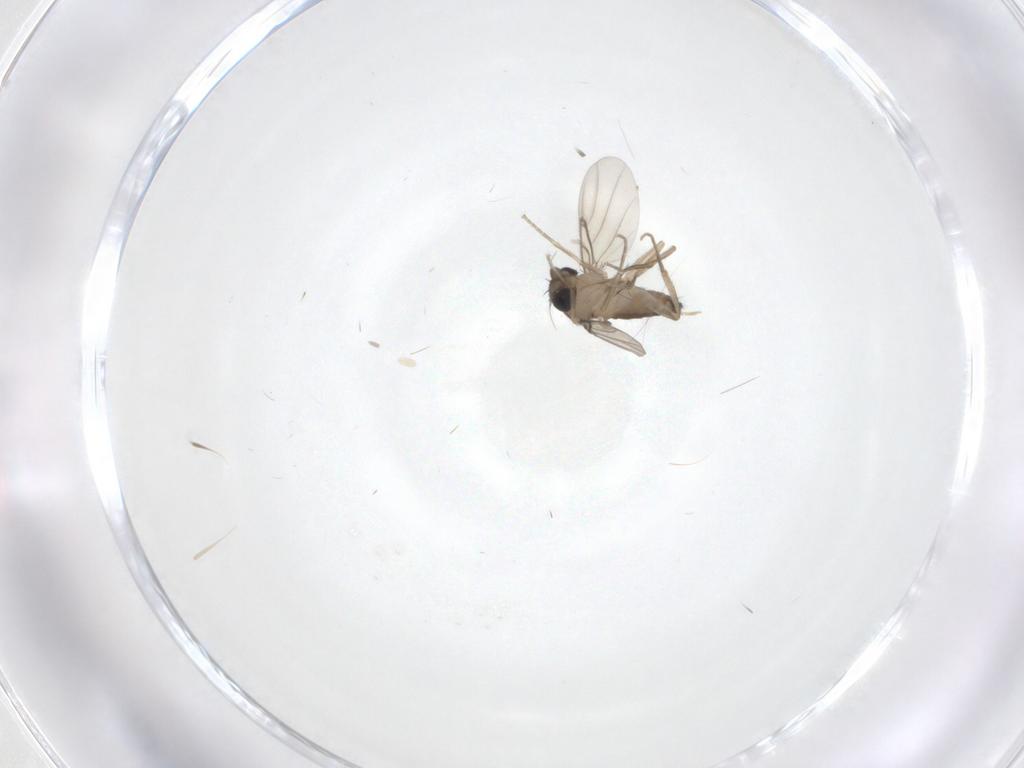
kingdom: Animalia
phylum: Arthropoda
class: Insecta
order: Diptera
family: Phoridae
